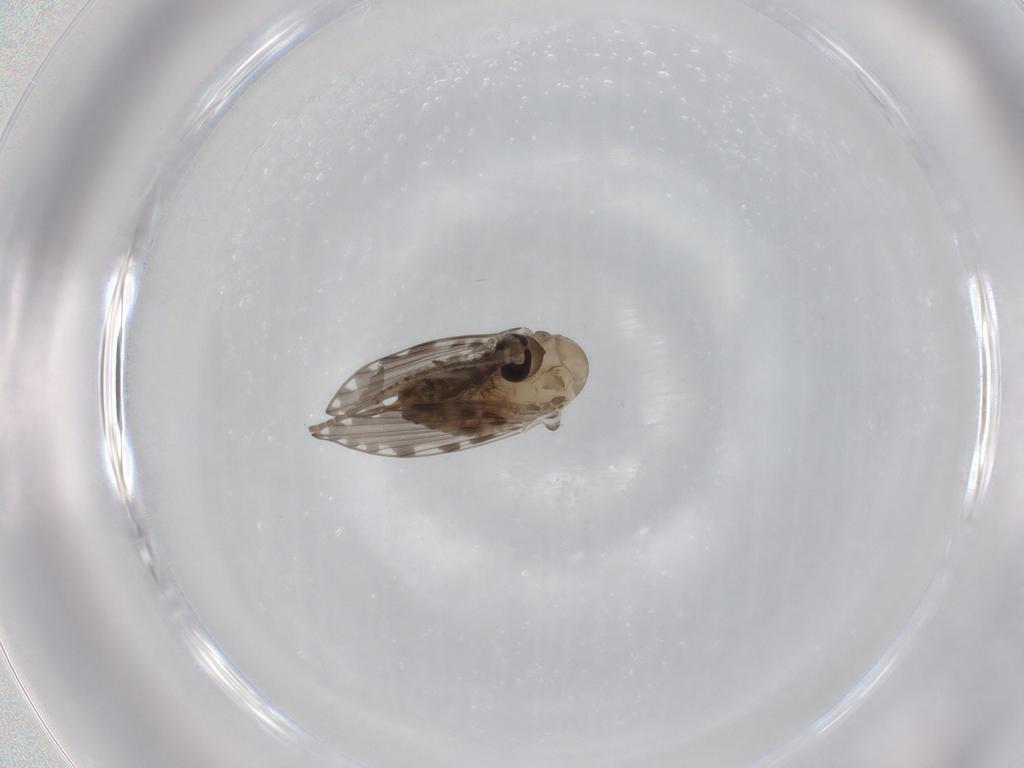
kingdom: Animalia
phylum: Arthropoda
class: Insecta
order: Diptera
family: Psychodidae
